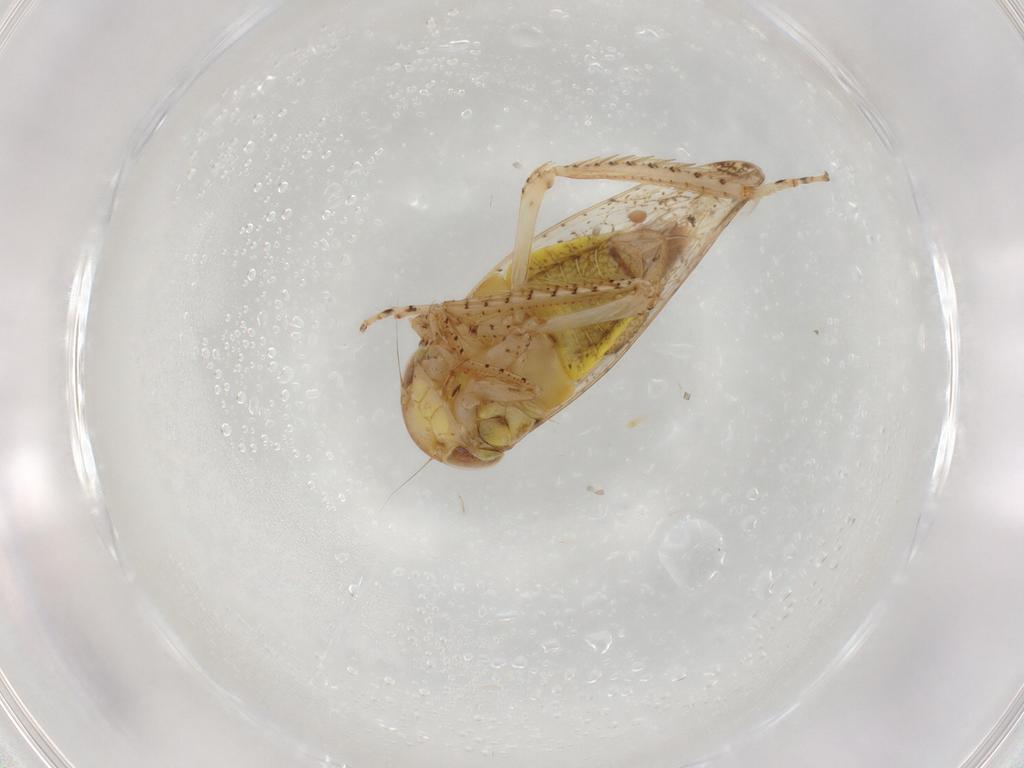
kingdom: Animalia
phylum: Arthropoda
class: Insecta
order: Hemiptera
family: Cicadellidae
